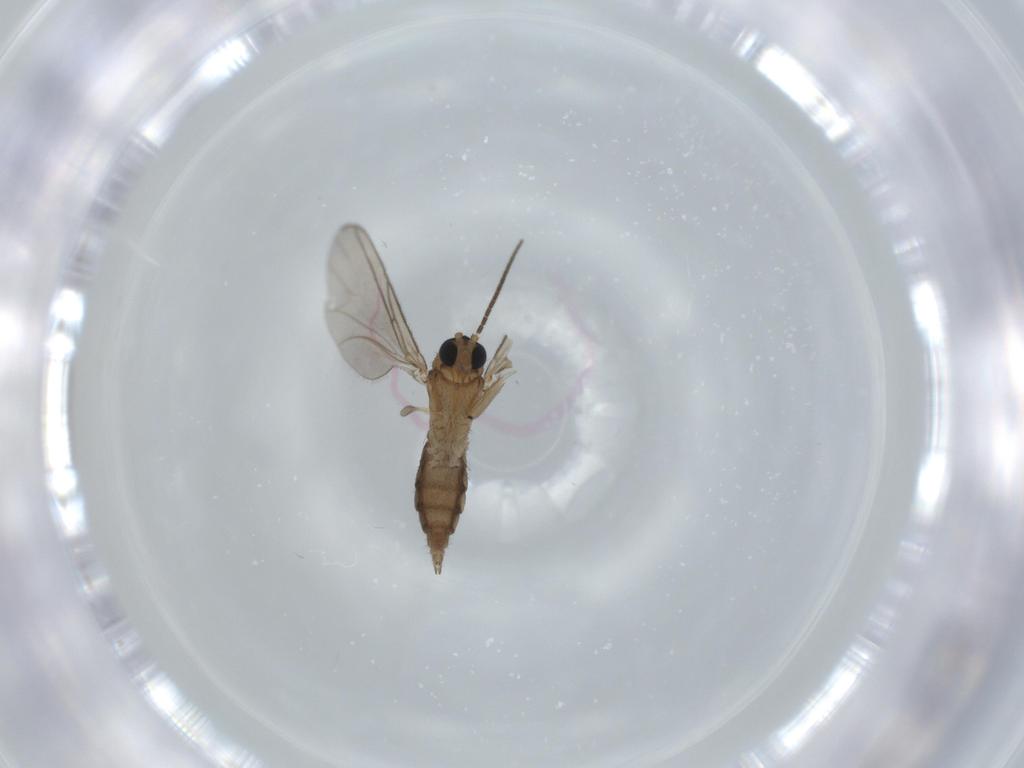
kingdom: Animalia
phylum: Arthropoda
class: Insecta
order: Diptera
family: Sciaridae
